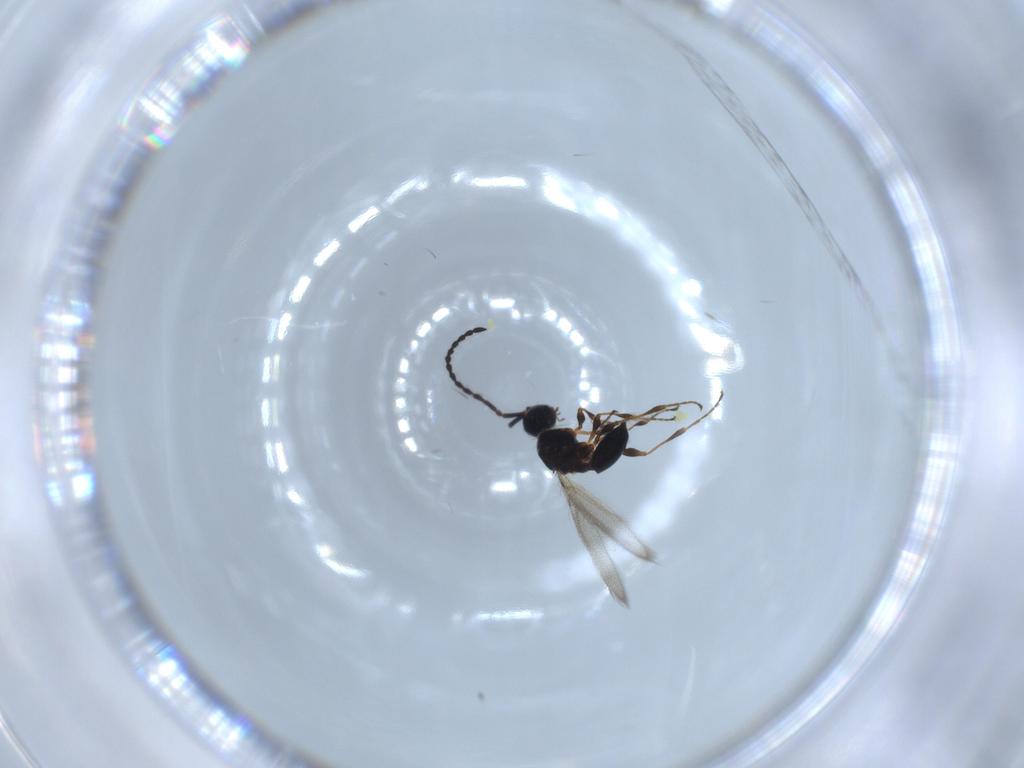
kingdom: Animalia
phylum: Arthropoda
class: Insecta
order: Hymenoptera
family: Diapriidae
